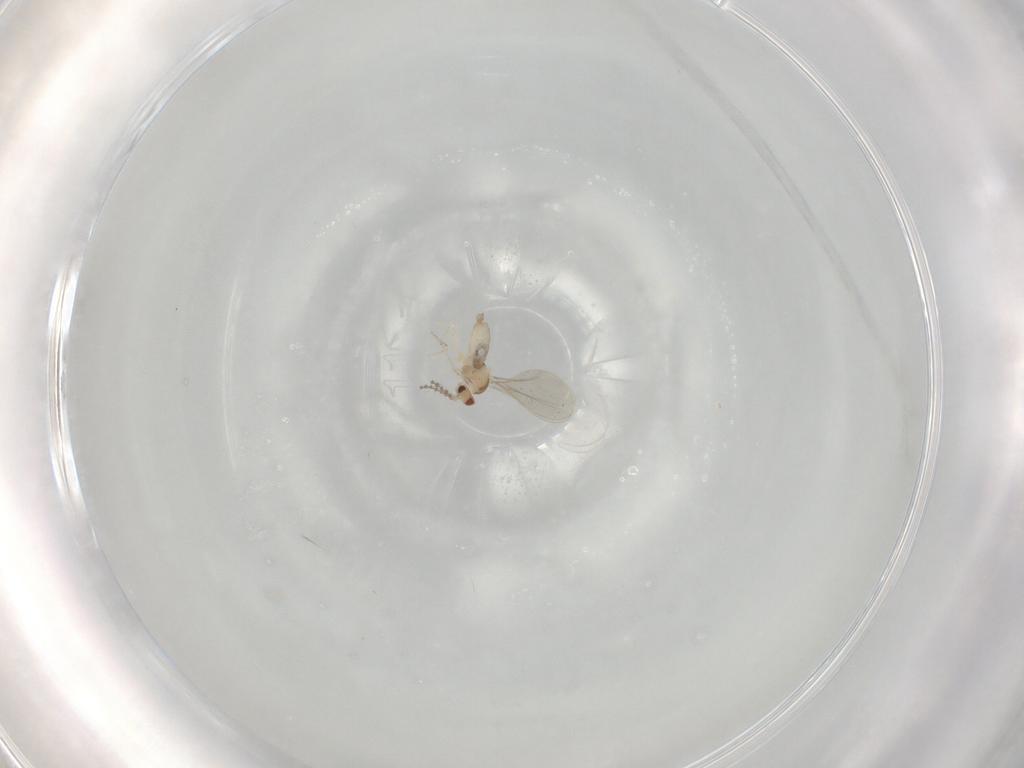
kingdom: Animalia
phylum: Arthropoda
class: Insecta
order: Diptera
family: Cecidomyiidae
